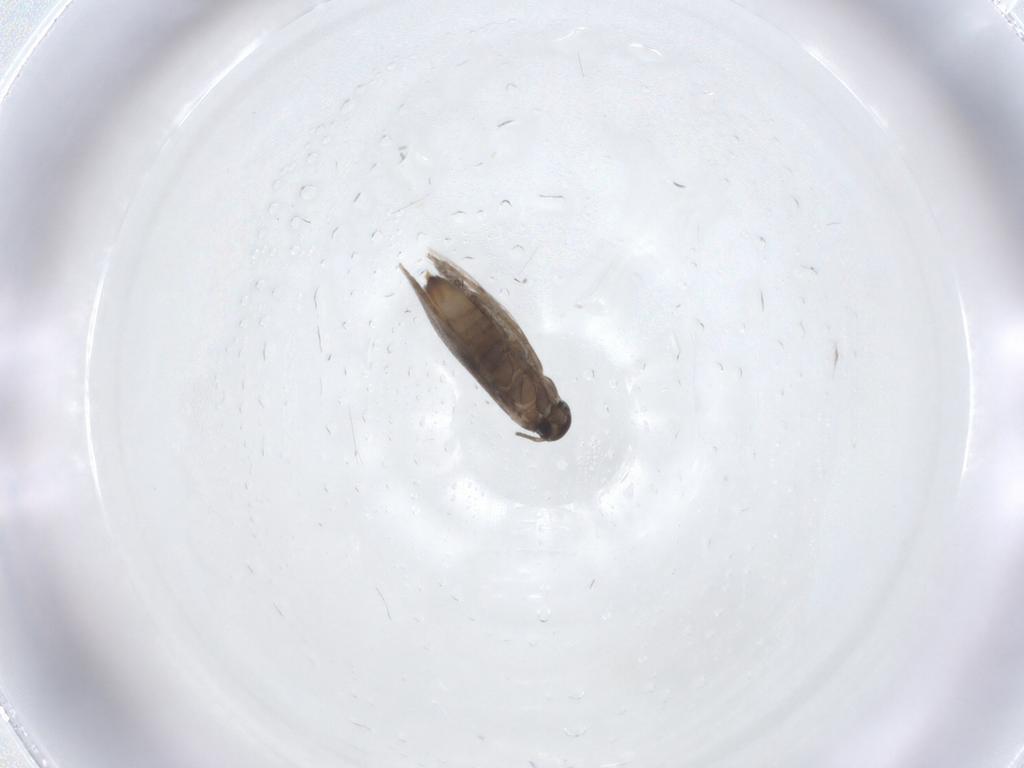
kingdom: Animalia
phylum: Arthropoda
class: Insecta
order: Lepidoptera
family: Heliozelidae
